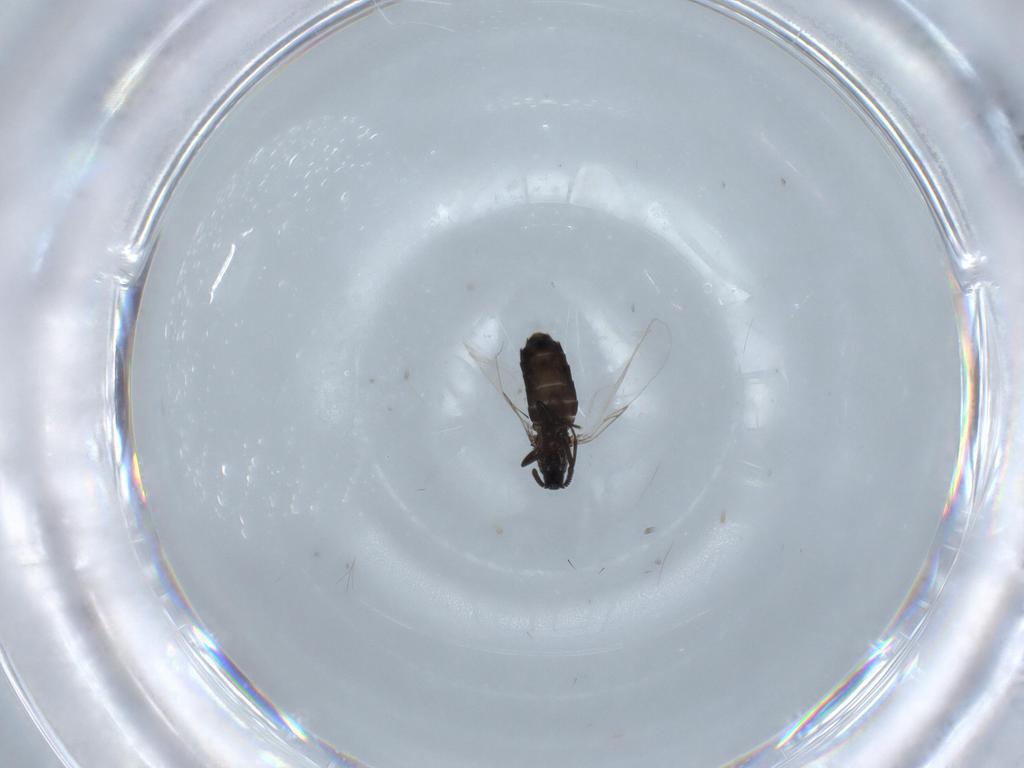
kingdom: Animalia
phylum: Arthropoda
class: Insecta
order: Diptera
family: Scatopsidae
